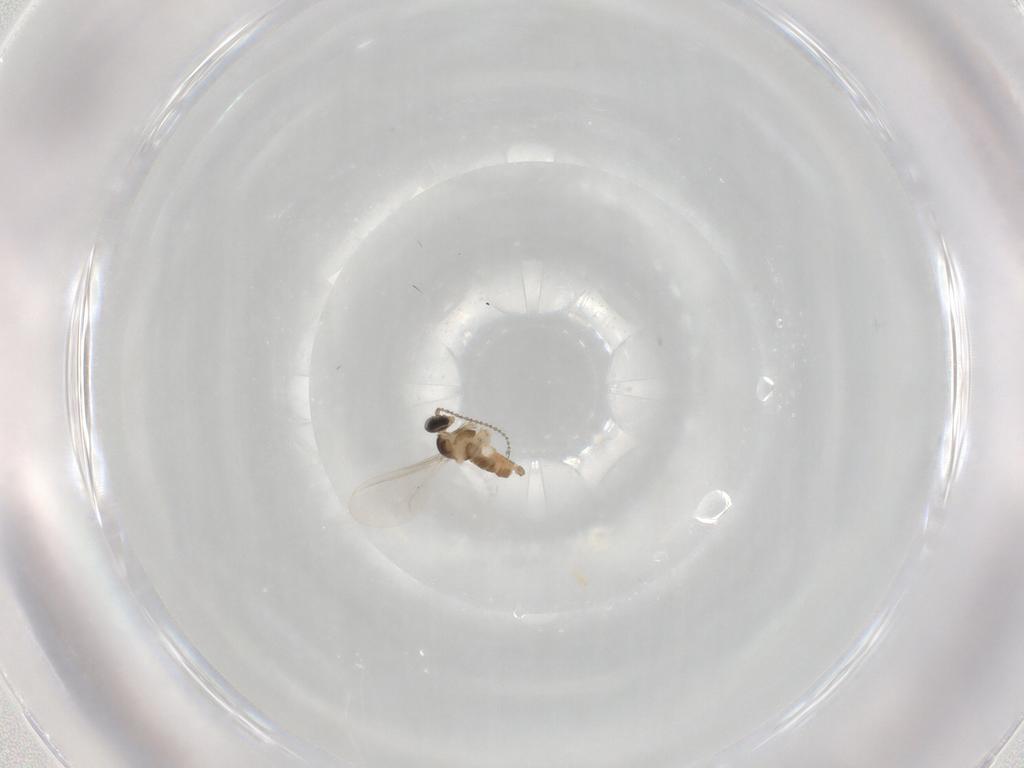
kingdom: Animalia
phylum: Arthropoda
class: Insecta
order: Diptera
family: Cecidomyiidae
